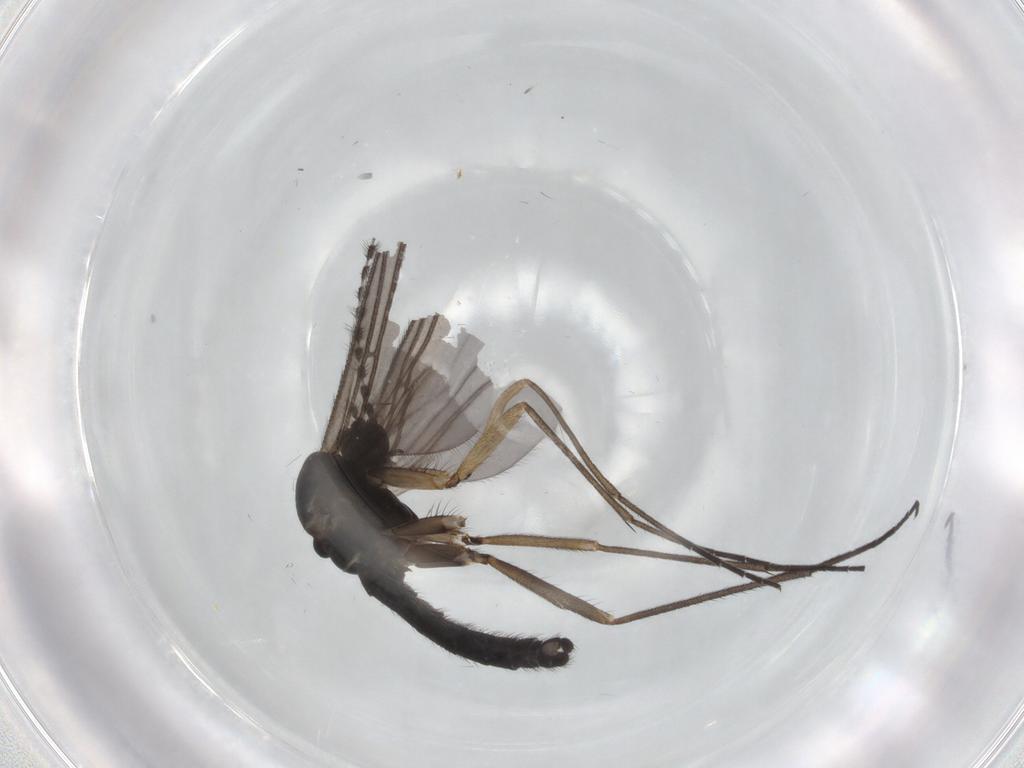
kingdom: Animalia
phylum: Arthropoda
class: Insecta
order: Diptera
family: Sciaridae
